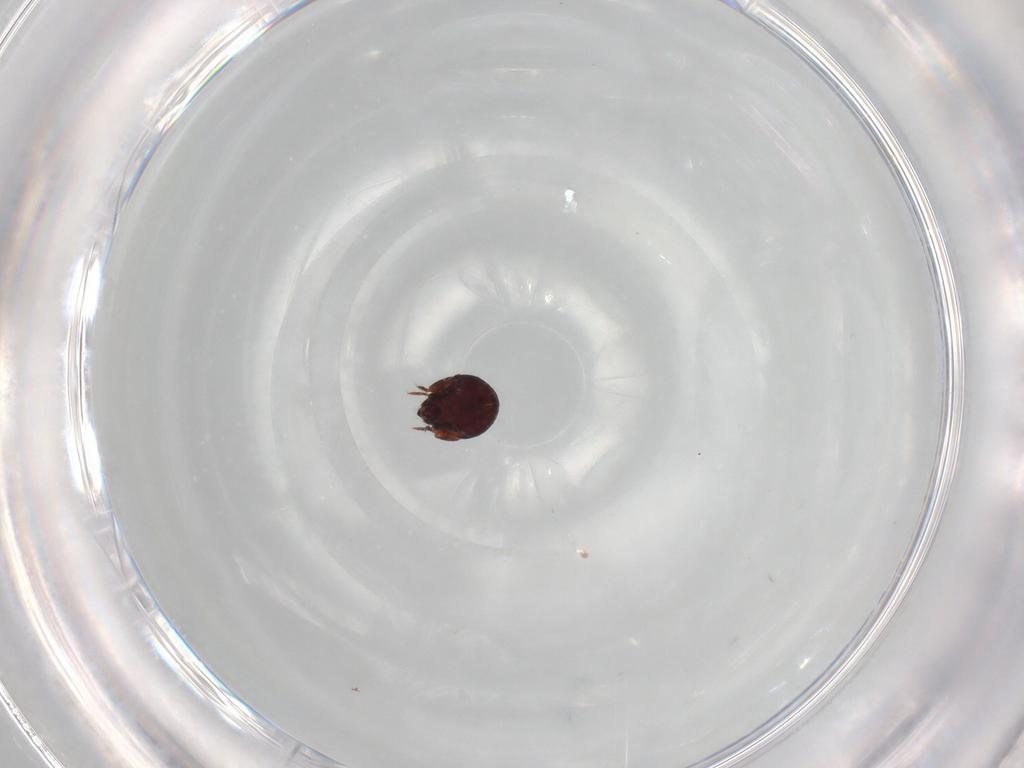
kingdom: Animalia
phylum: Arthropoda
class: Arachnida
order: Sarcoptiformes
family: Humerobatidae
